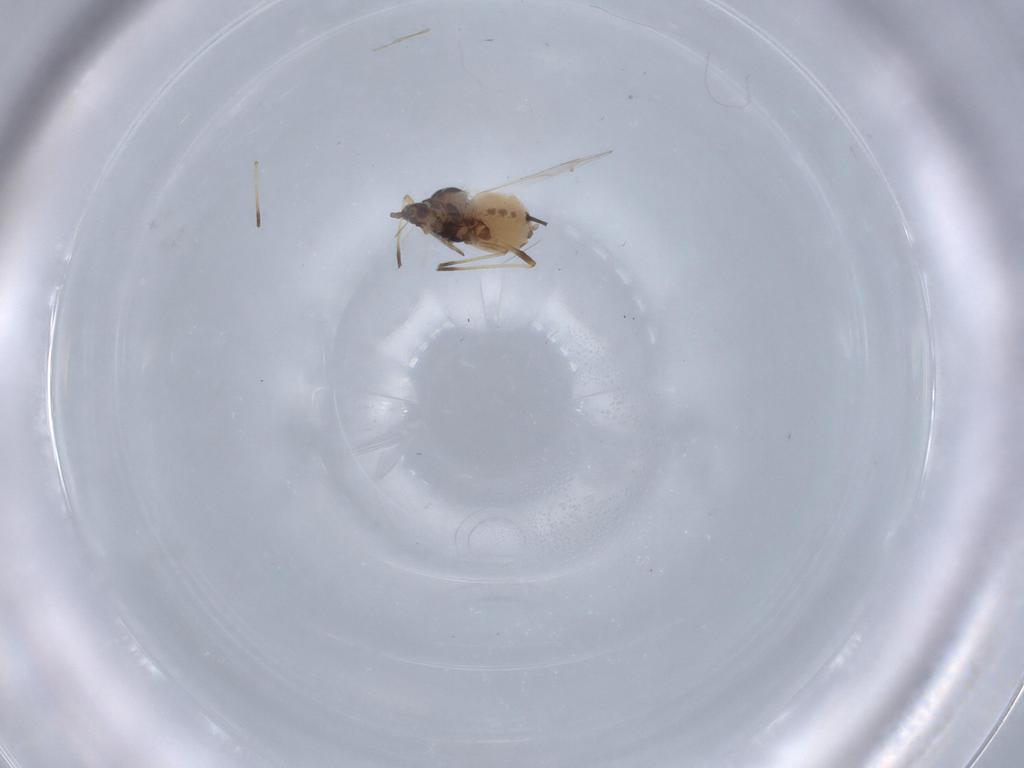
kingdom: Animalia
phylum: Arthropoda
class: Insecta
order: Hemiptera
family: Aphididae
